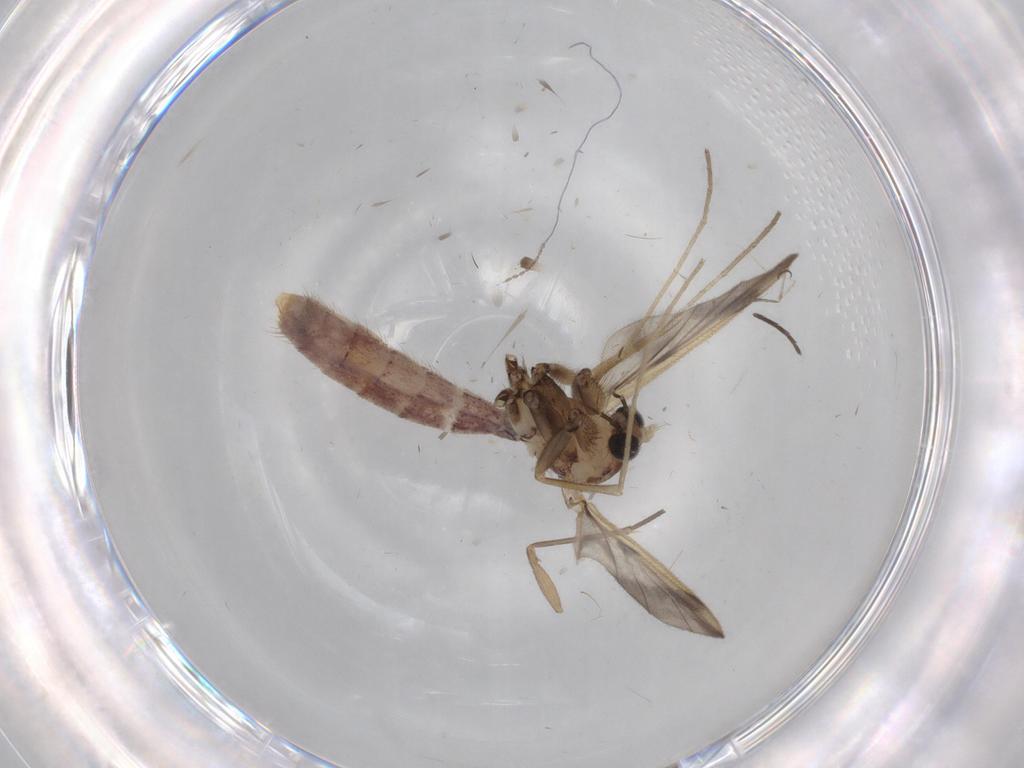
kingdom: Animalia
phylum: Arthropoda
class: Insecta
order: Diptera
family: Mycetophilidae
